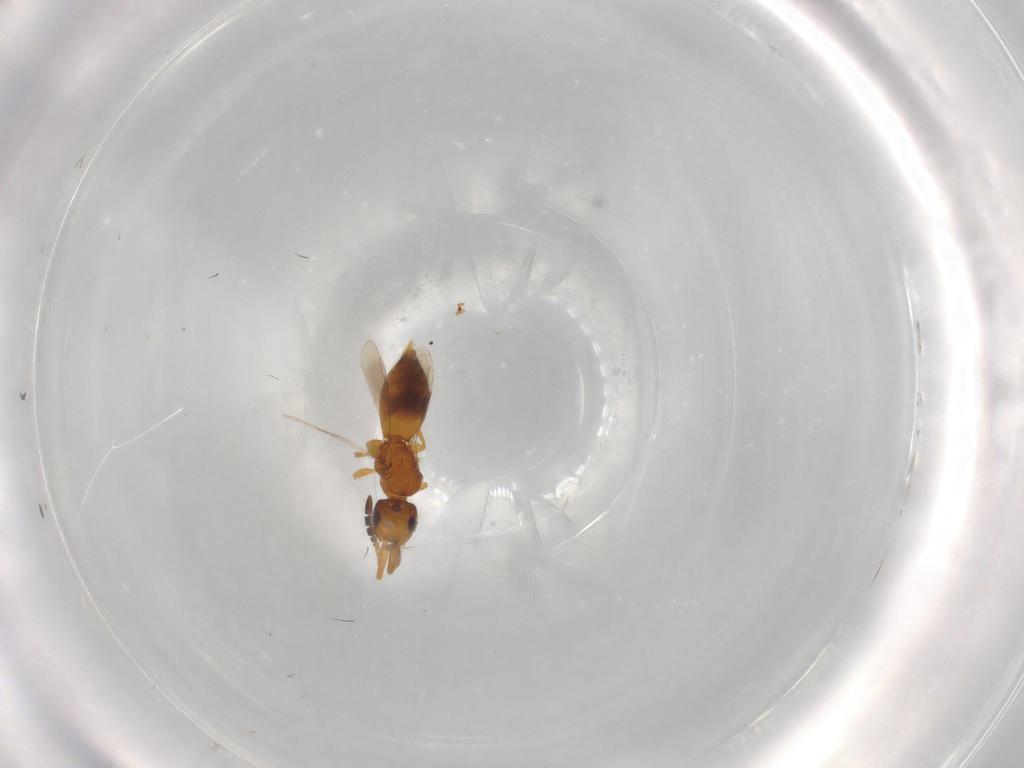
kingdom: Animalia
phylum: Arthropoda
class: Insecta
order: Hymenoptera
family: Ceraphronidae
